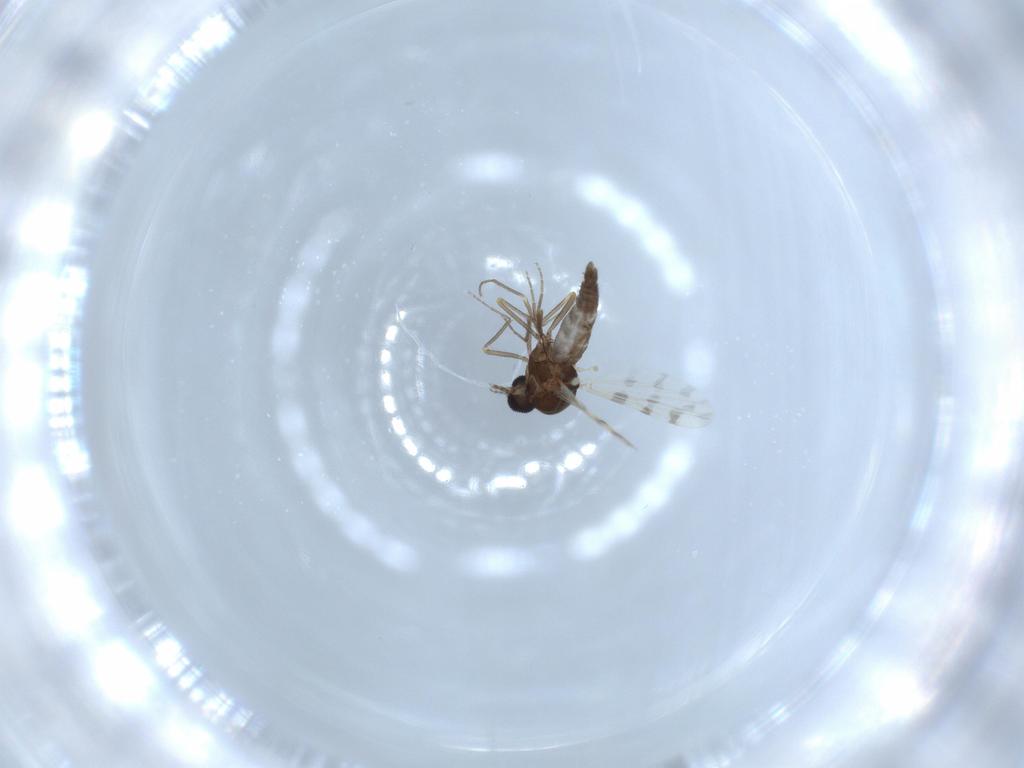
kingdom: Animalia
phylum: Arthropoda
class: Insecta
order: Diptera
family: Ceratopogonidae
